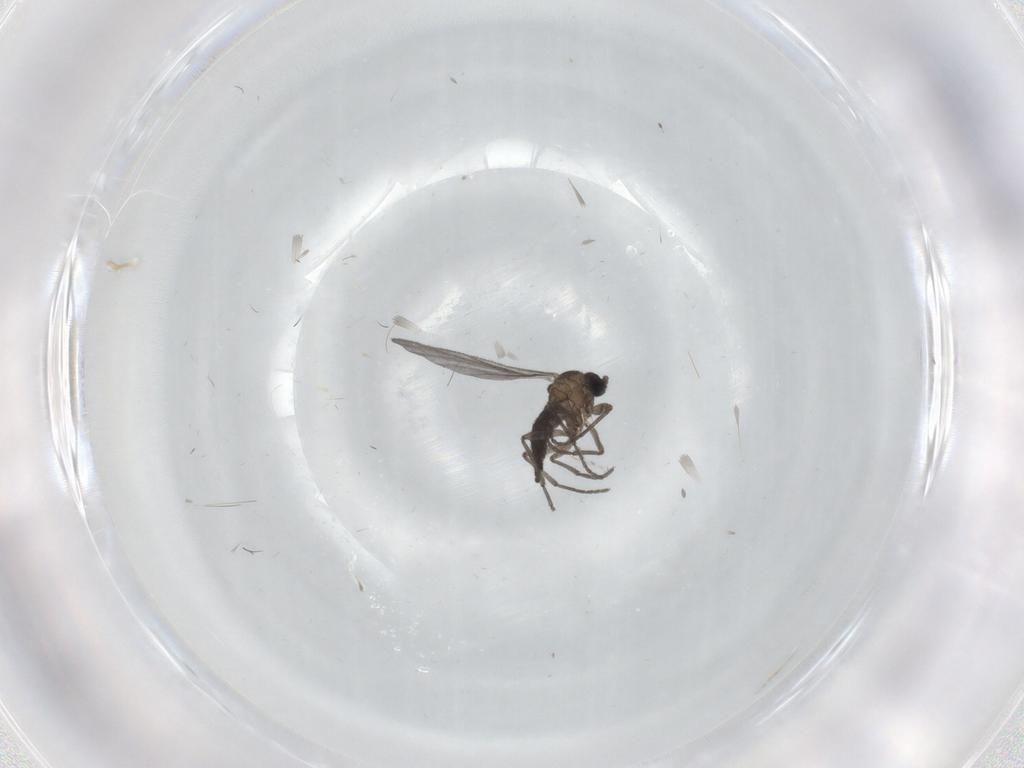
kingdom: Animalia
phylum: Arthropoda
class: Insecta
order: Diptera
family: Sciaridae
